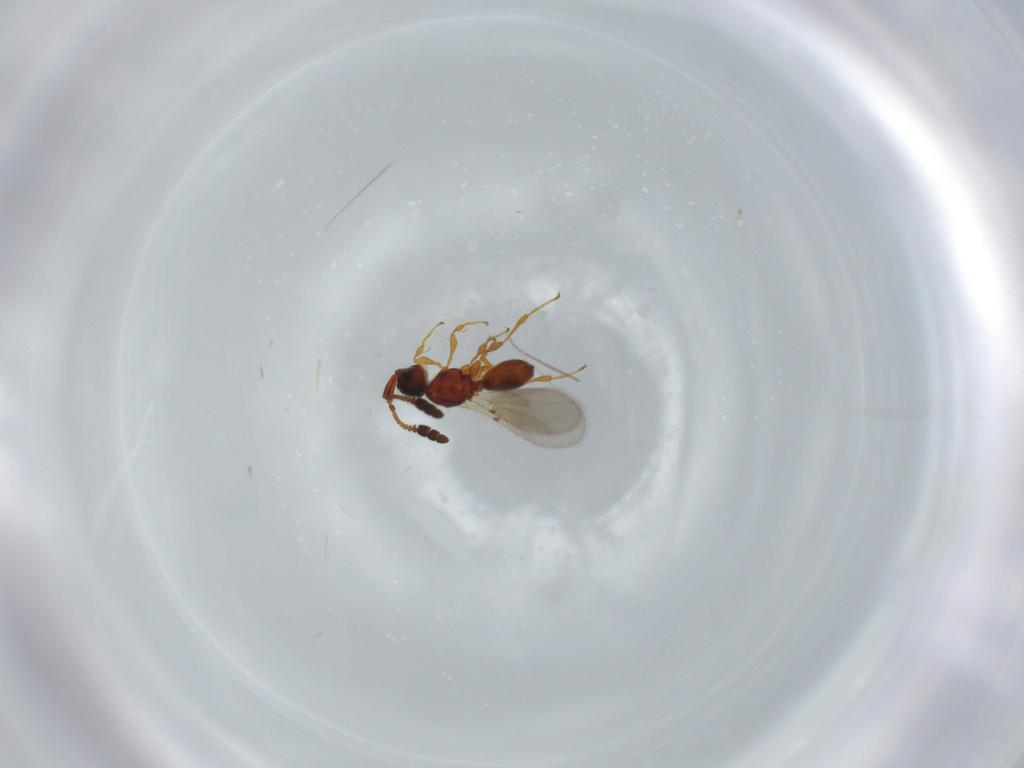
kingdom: Animalia
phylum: Arthropoda
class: Insecta
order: Hymenoptera
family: Diapriidae
